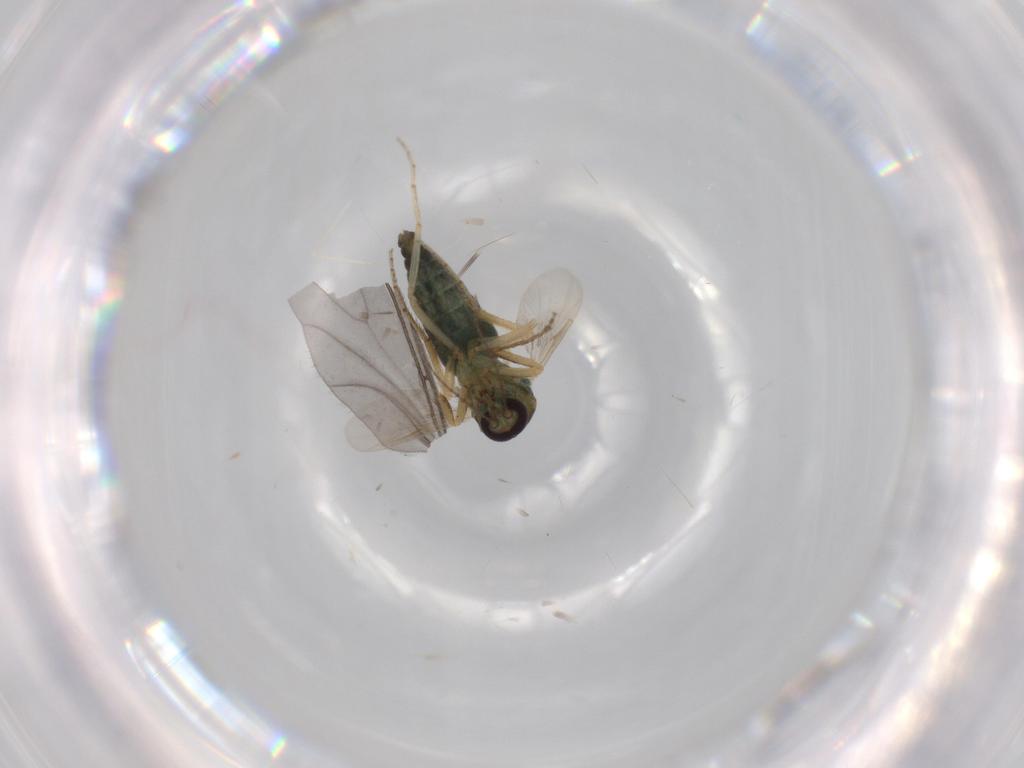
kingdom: Animalia
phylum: Arthropoda
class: Insecta
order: Diptera
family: Ceratopogonidae
